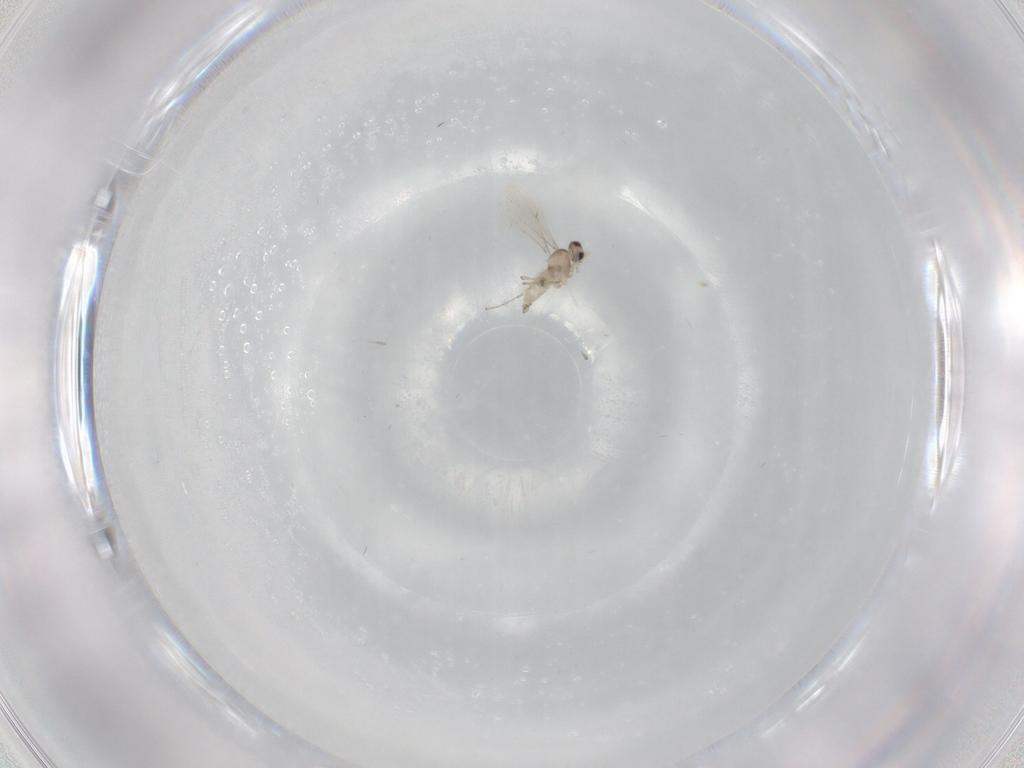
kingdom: Animalia
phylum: Arthropoda
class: Insecta
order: Diptera
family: Cecidomyiidae
